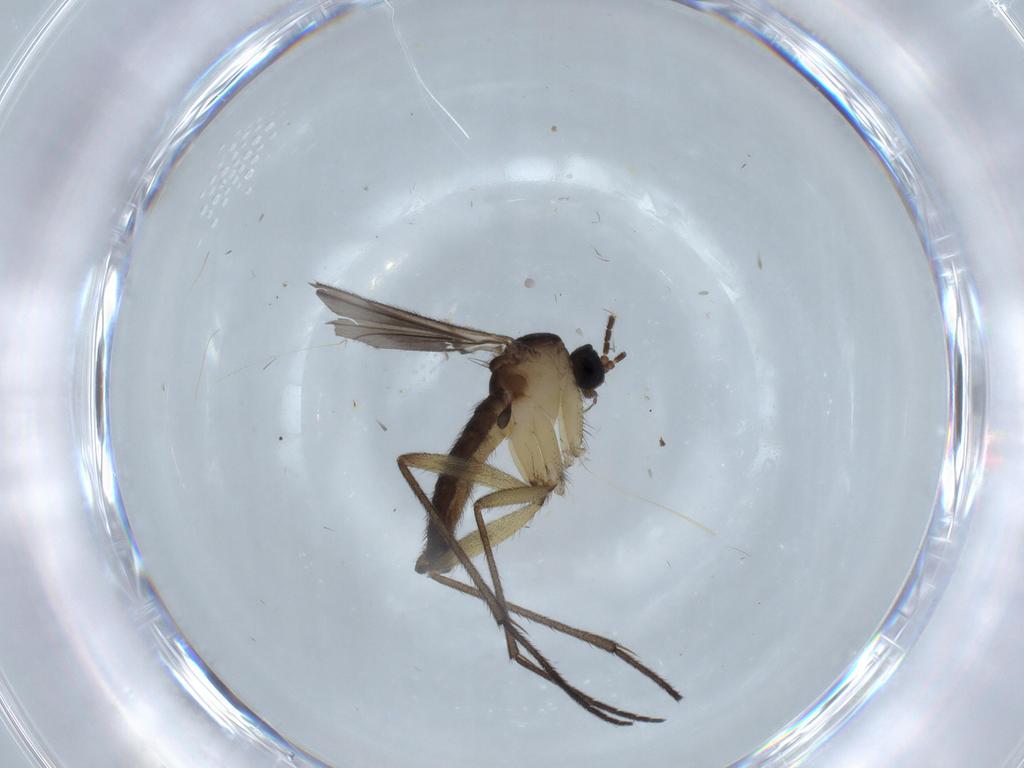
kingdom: Animalia
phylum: Arthropoda
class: Insecta
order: Diptera
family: Sciaridae
